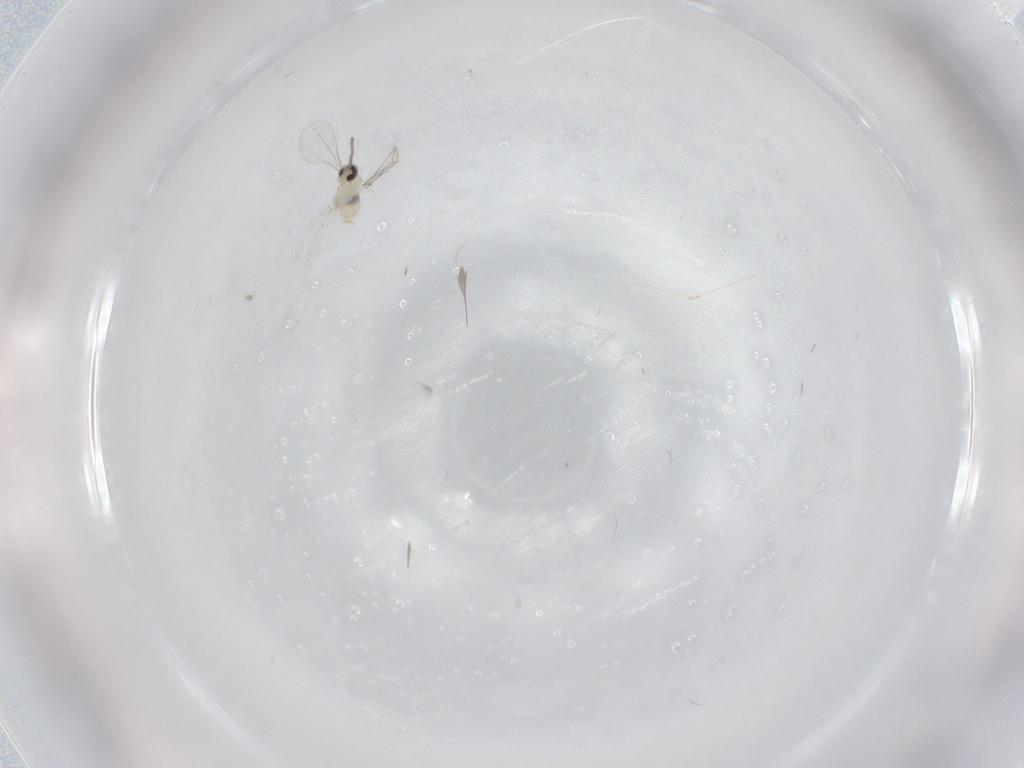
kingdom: Animalia
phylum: Arthropoda
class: Insecta
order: Diptera
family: Cecidomyiidae
